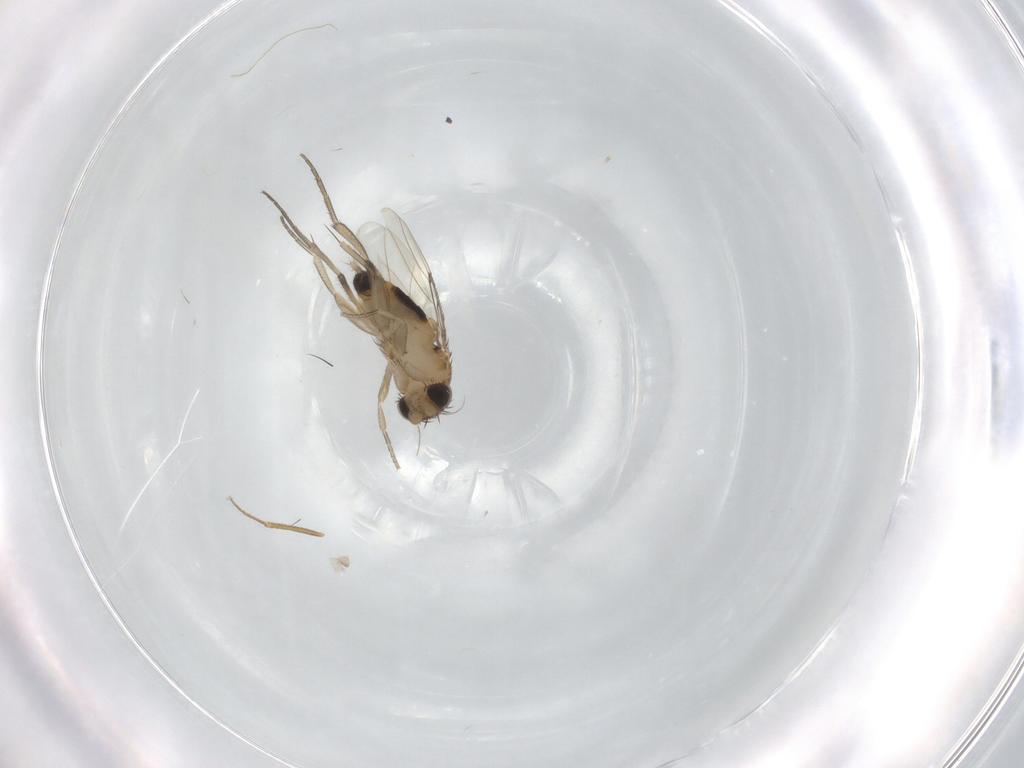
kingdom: Animalia
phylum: Arthropoda
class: Insecta
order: Diptera
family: Phoridae
